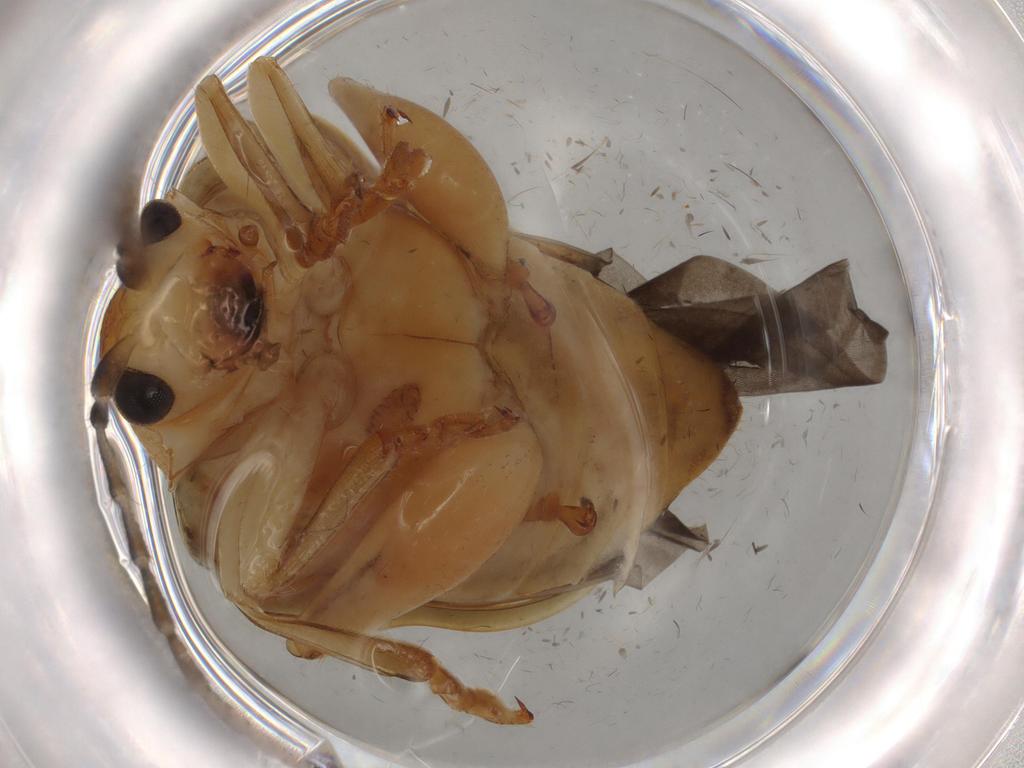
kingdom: Animalia
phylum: Arthropoda
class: Insecta
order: Coleoptera
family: Chrysomelidae
